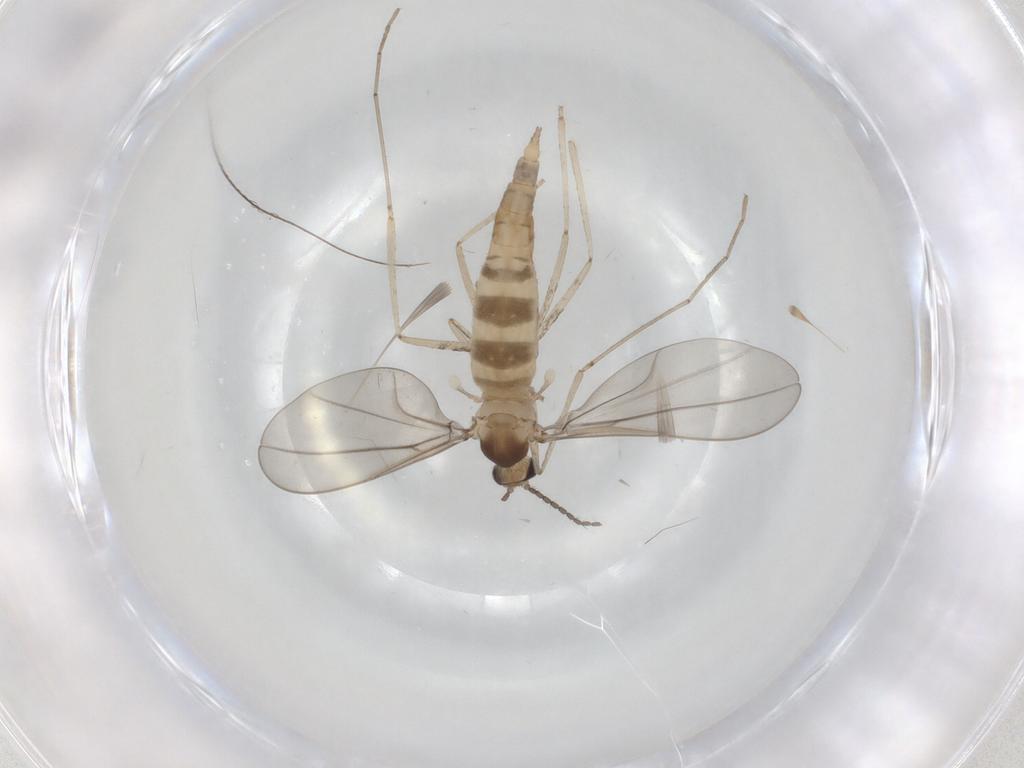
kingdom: Animalia
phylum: Arthropoda
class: Insecta
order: Diptera
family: Cecidomyiidae
